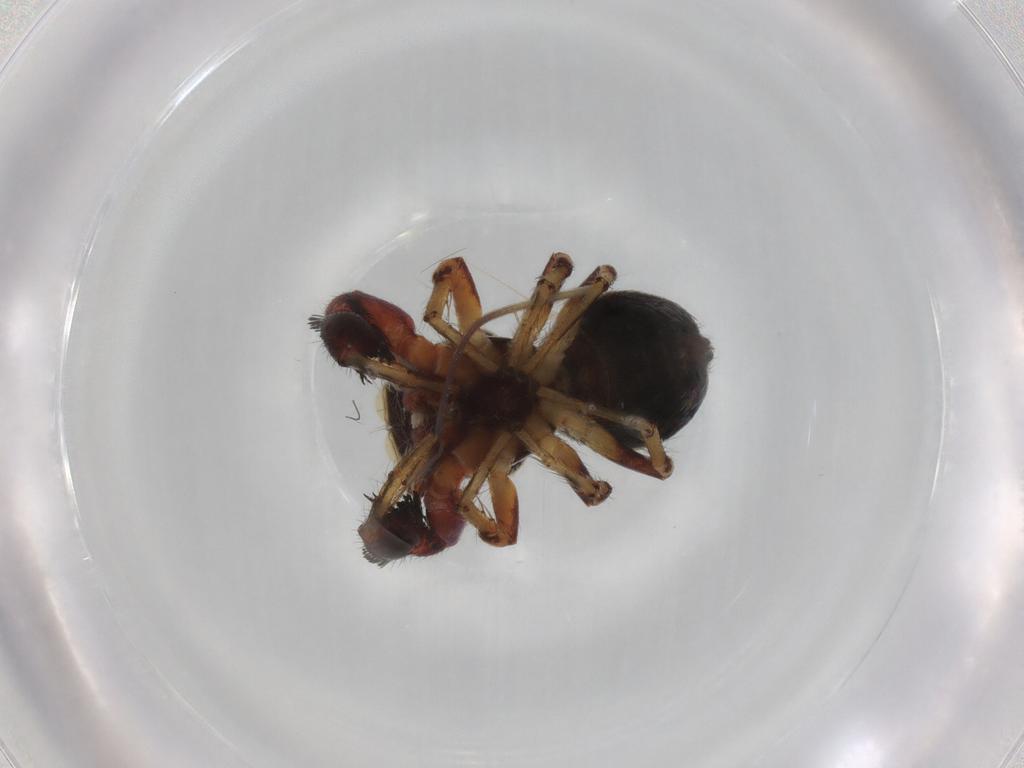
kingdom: Animalia
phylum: Arthropoda
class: Arachnida
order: Araneae
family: Salticidae
